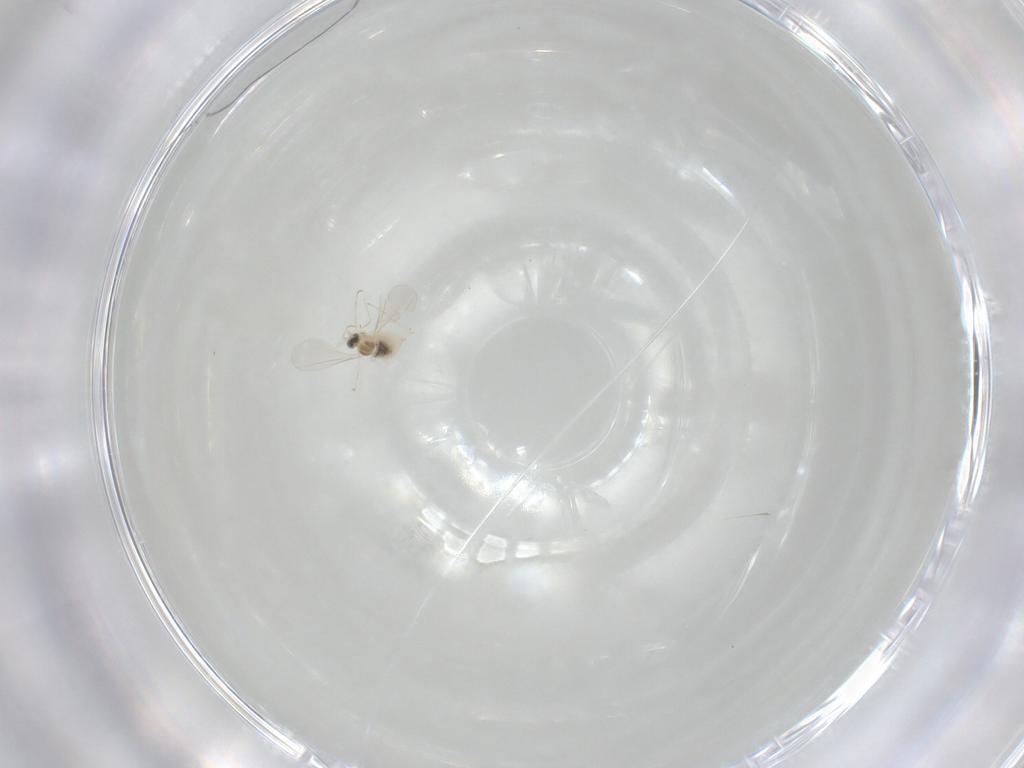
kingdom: Animalia
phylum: Arthropoda
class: Insecta
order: Diptera
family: Cecidomyiidae
